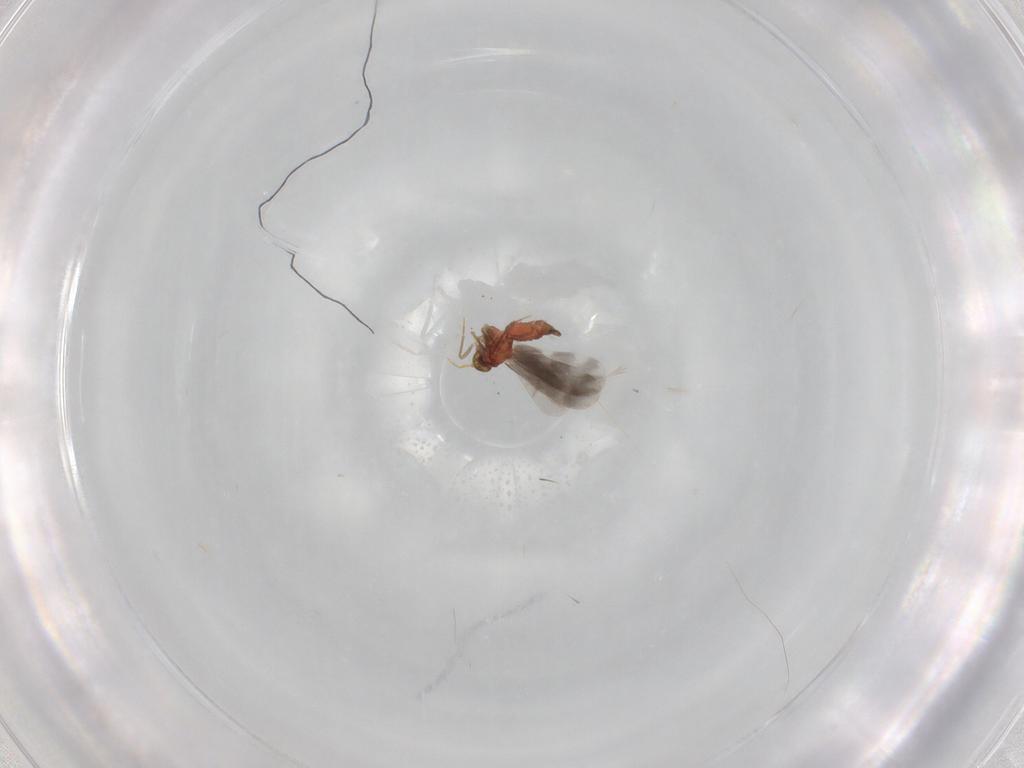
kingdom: Animalia
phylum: Arthropoda
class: Insecta
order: Hemiptera
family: Aleyrodidae
